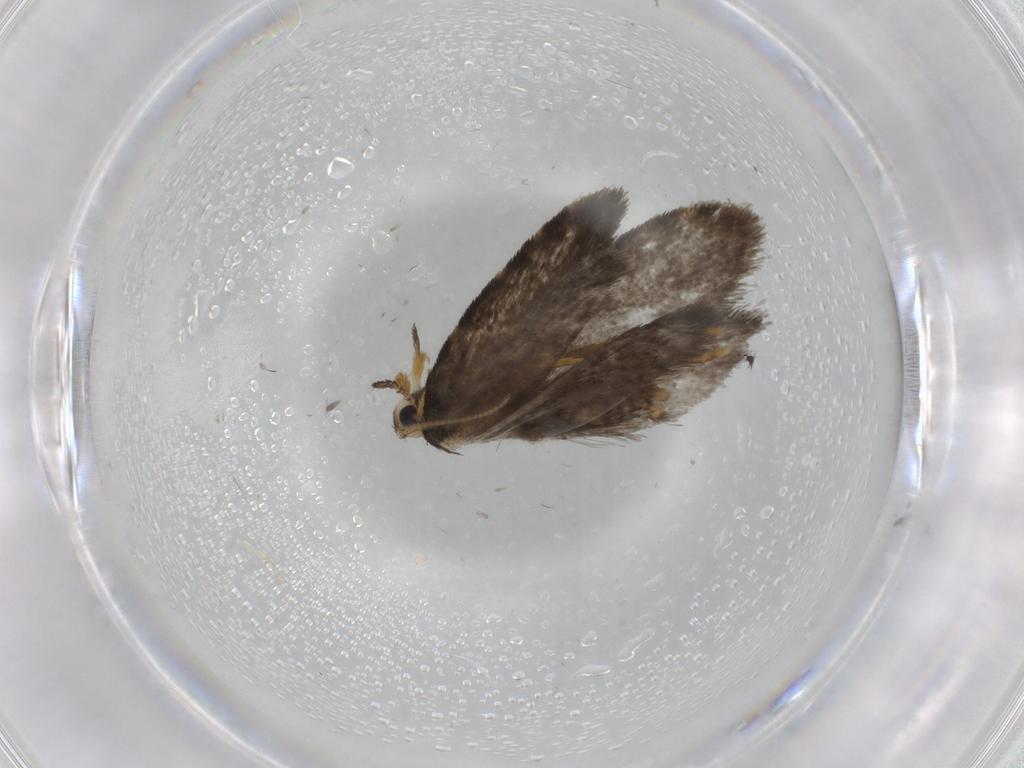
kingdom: Animalia
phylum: Arthropoda
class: Insecta
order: Lepidoptera
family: Psychidae
